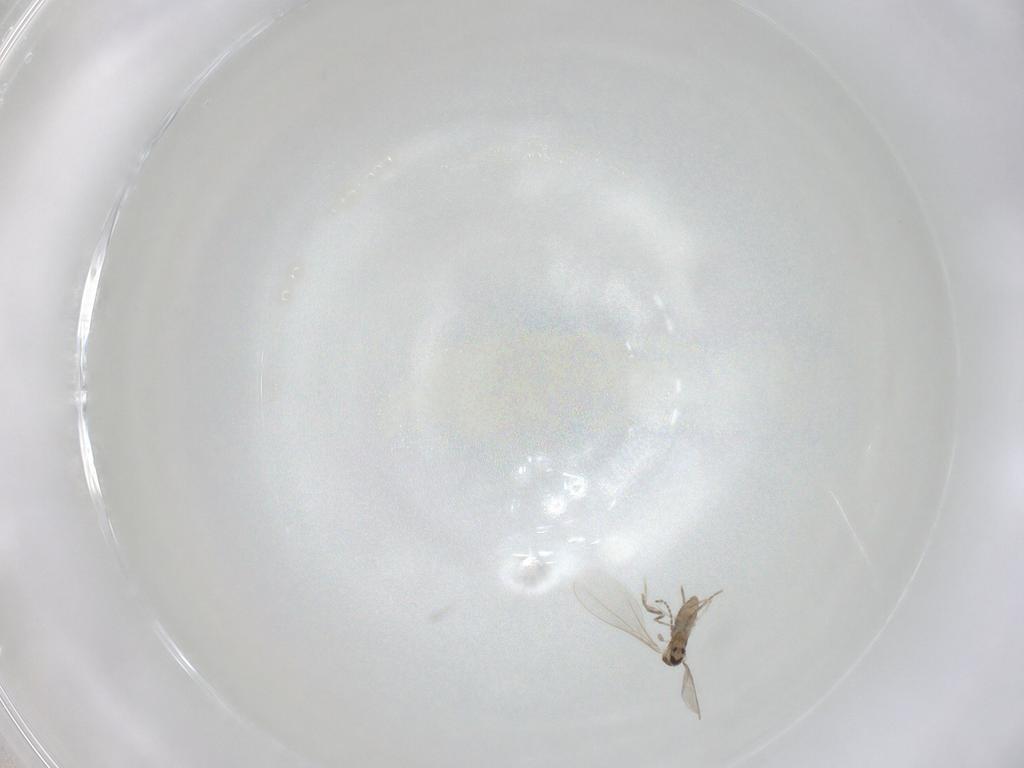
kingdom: Animalia
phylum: Arthropoda
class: Insecta
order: Diptera
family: Cecidomyiidae
